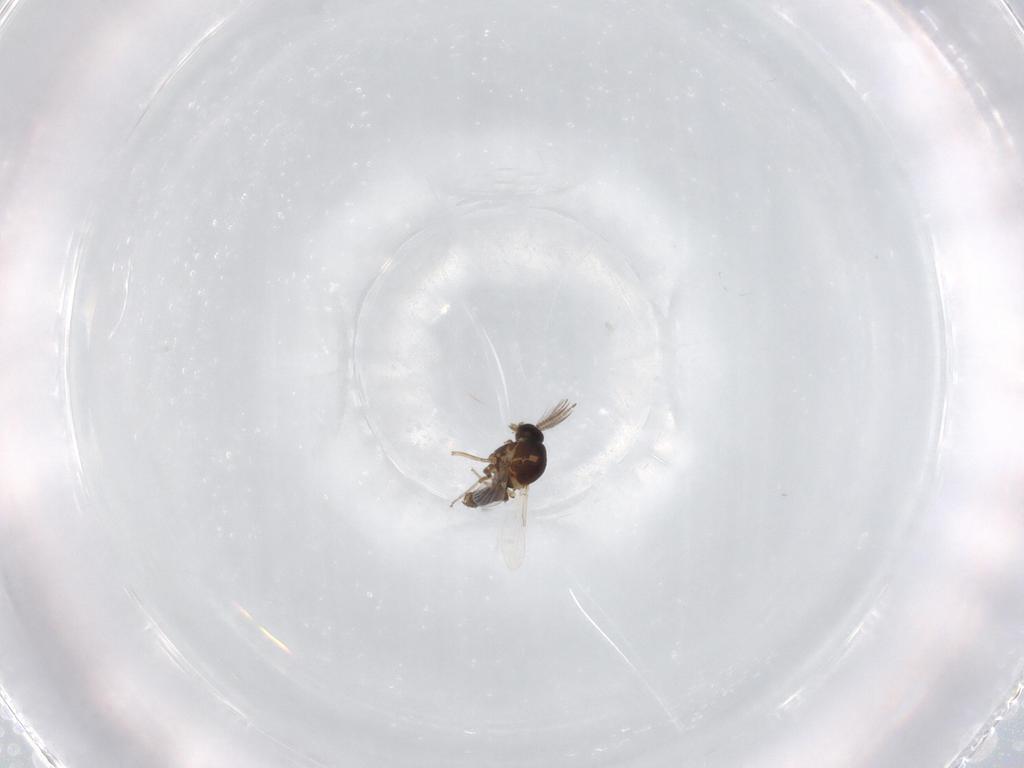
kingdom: Animalia
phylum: Arthropoda
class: Insecta
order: Diptera
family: Ceratopogonidae
